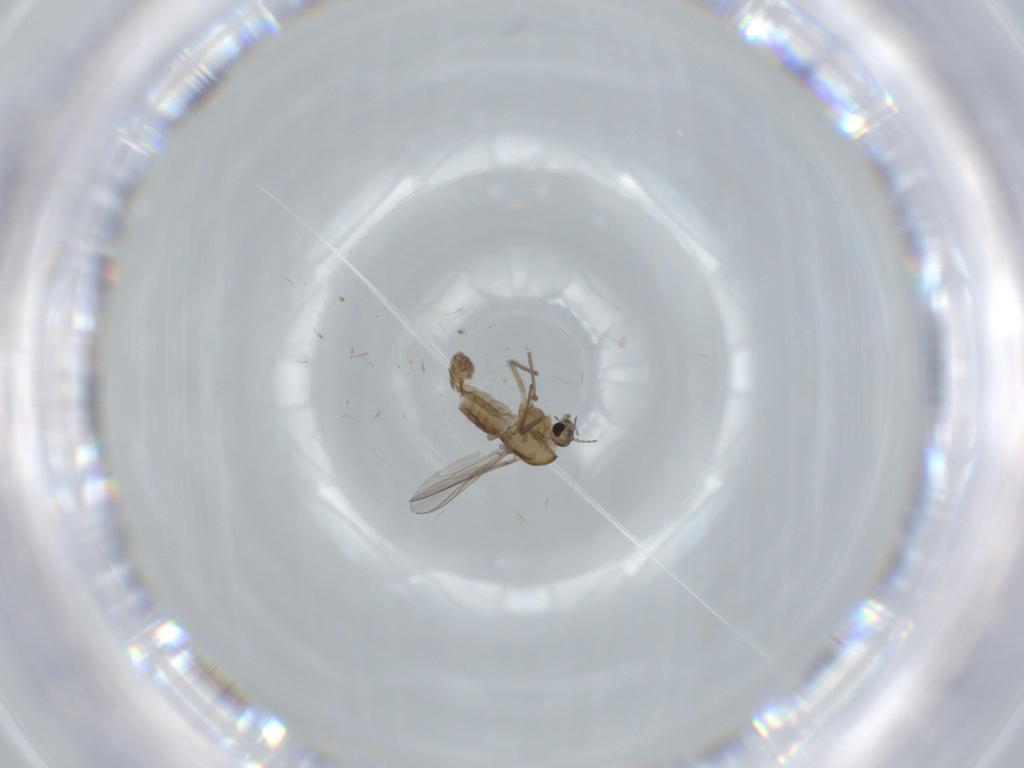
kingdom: Animalia
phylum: Arthropoda
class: Insecta
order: Diptera
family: Chironomidae
